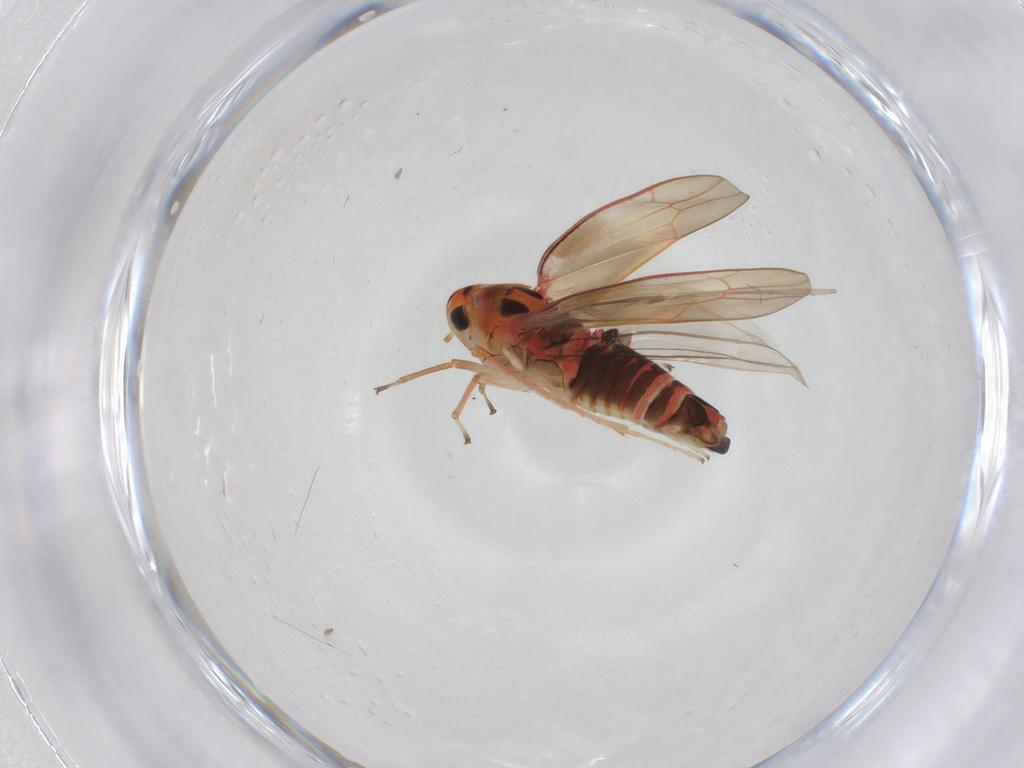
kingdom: Animalia
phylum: Arthropoda
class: Insecta
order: Hemiptera
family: Cicadellidae
